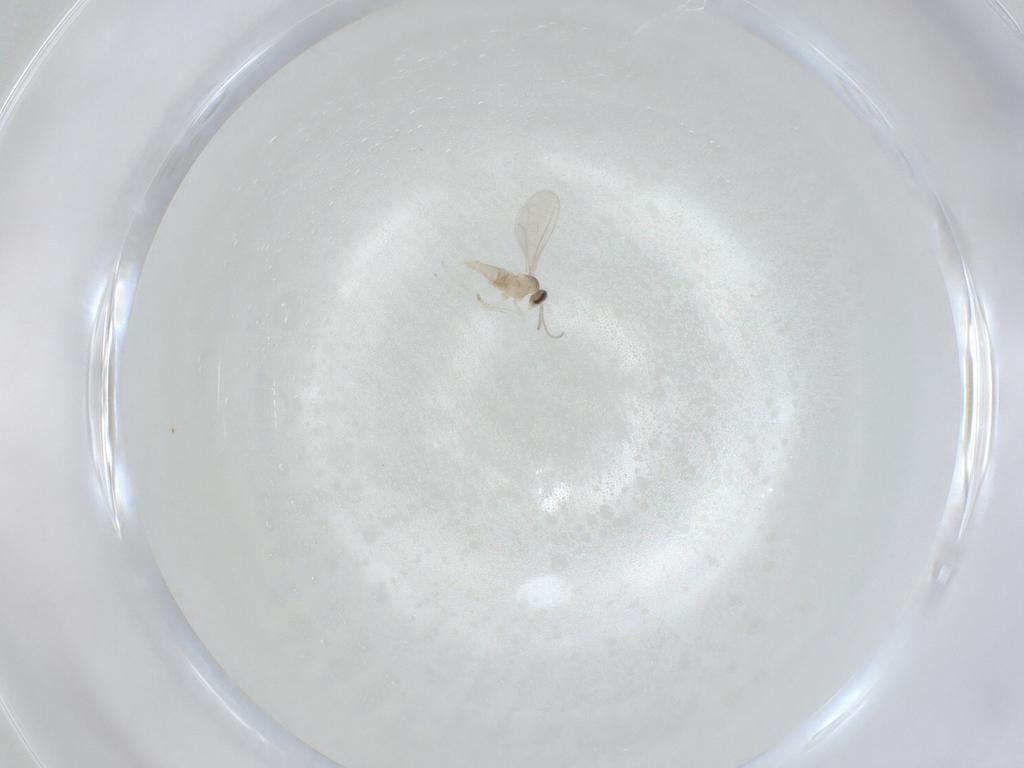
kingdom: Animalia
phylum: Arthropoda
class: Insecta
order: Diptera
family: Cecidomyiidae
